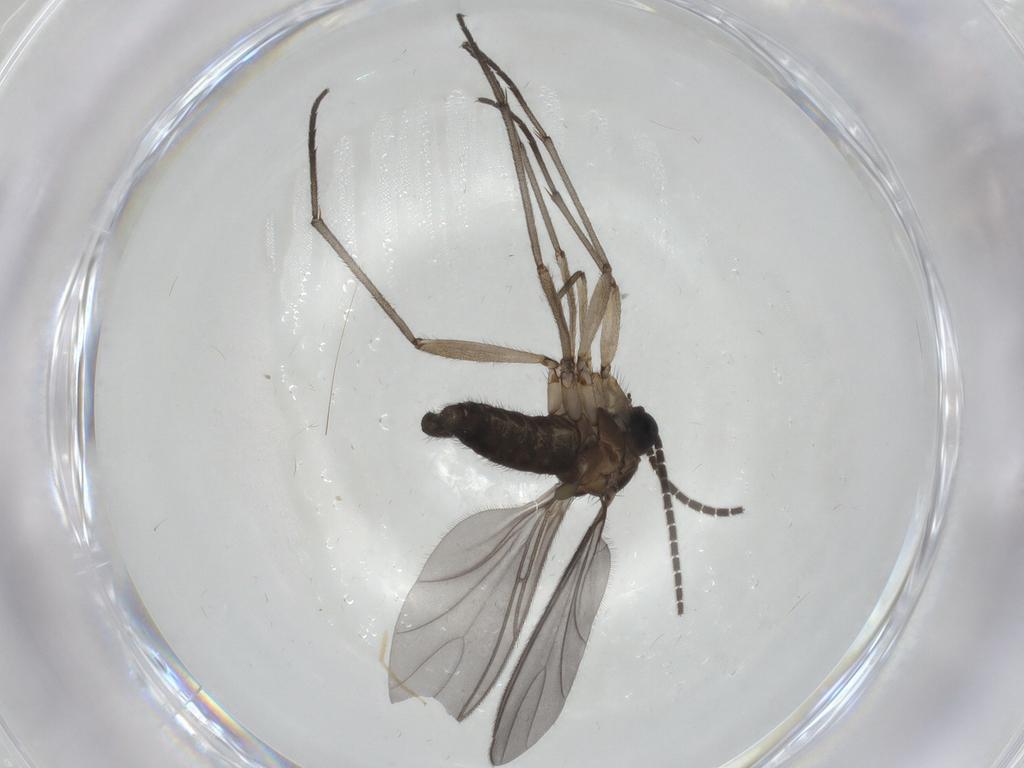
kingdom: Animalia
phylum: Arthropoda
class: Insecta
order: Diptera
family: Sciaridae
